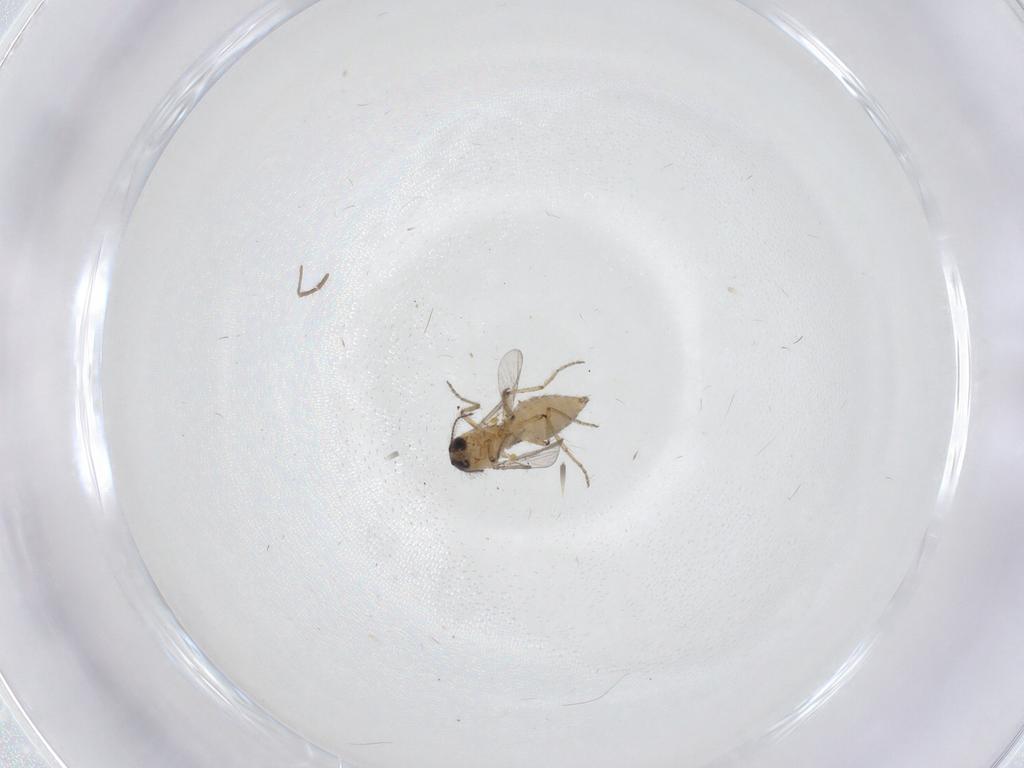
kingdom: Animalia
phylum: Arthropoda
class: Insecta
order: Diptera
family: Ceratopogonidae
